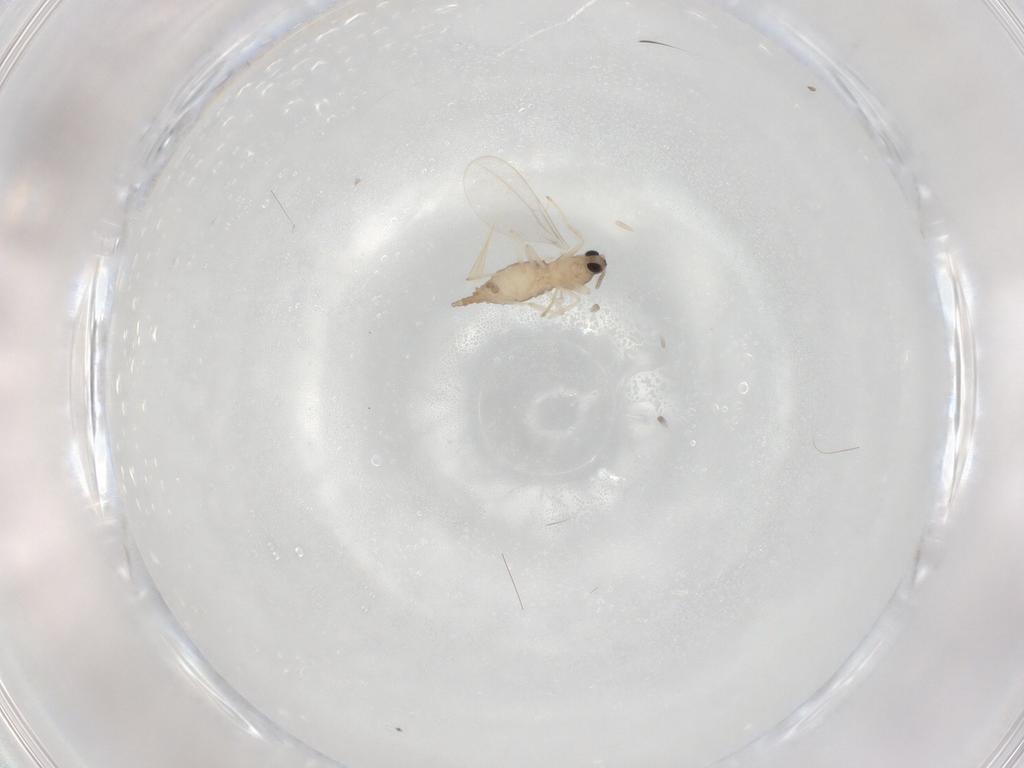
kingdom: Animalia
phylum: Arthropoda
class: Insecta
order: Diptera
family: Cecidomyiidae
